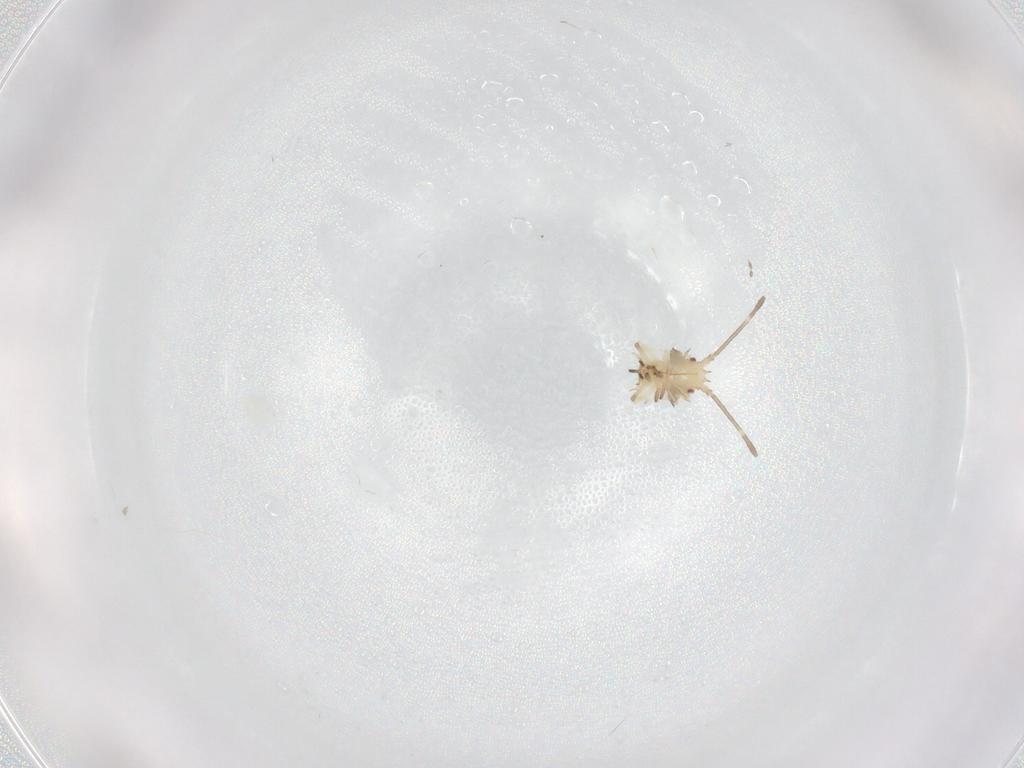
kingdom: Animalia
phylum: Arthropoda
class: Insecta
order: Hemiptera
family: Tingidae
